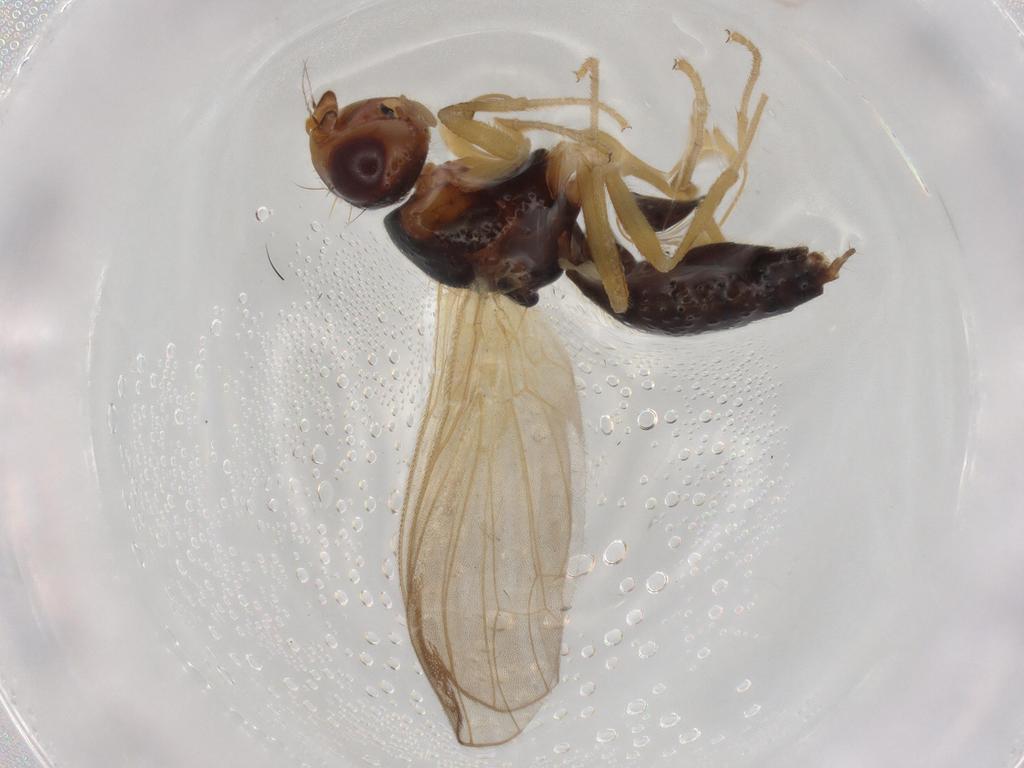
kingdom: Animalia
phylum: Arthropoda
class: Insecta
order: Diptera
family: Psilidae
